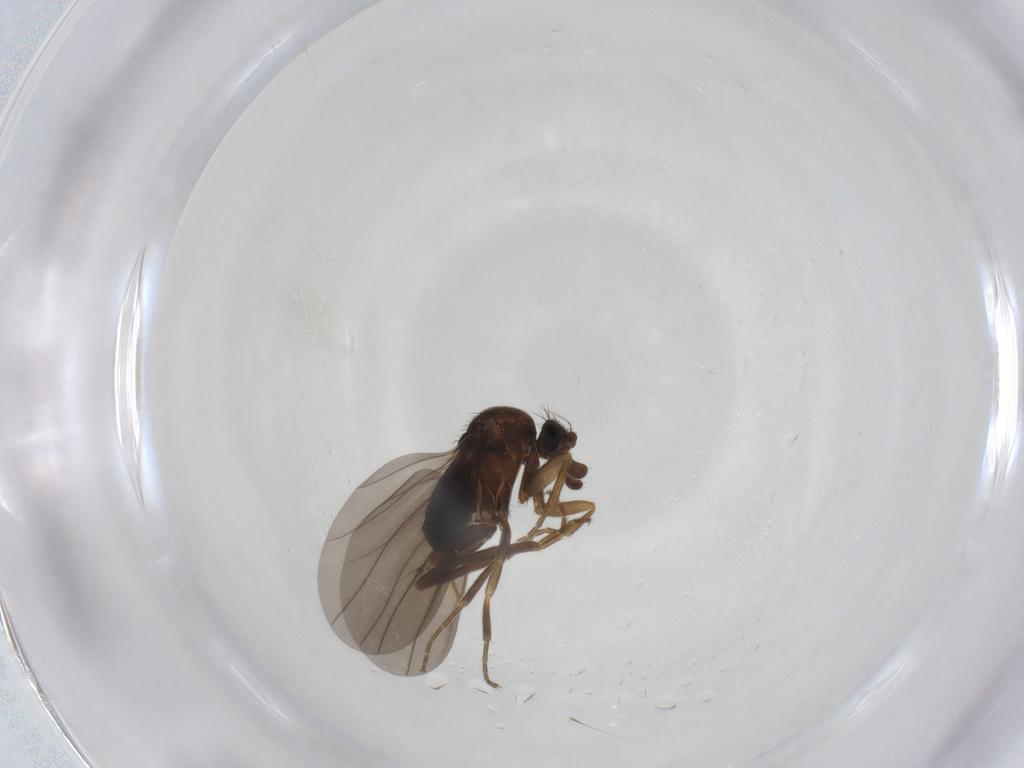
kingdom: Animalia
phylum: Arthropoda
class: Insecta
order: Diptera
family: Phoridae
